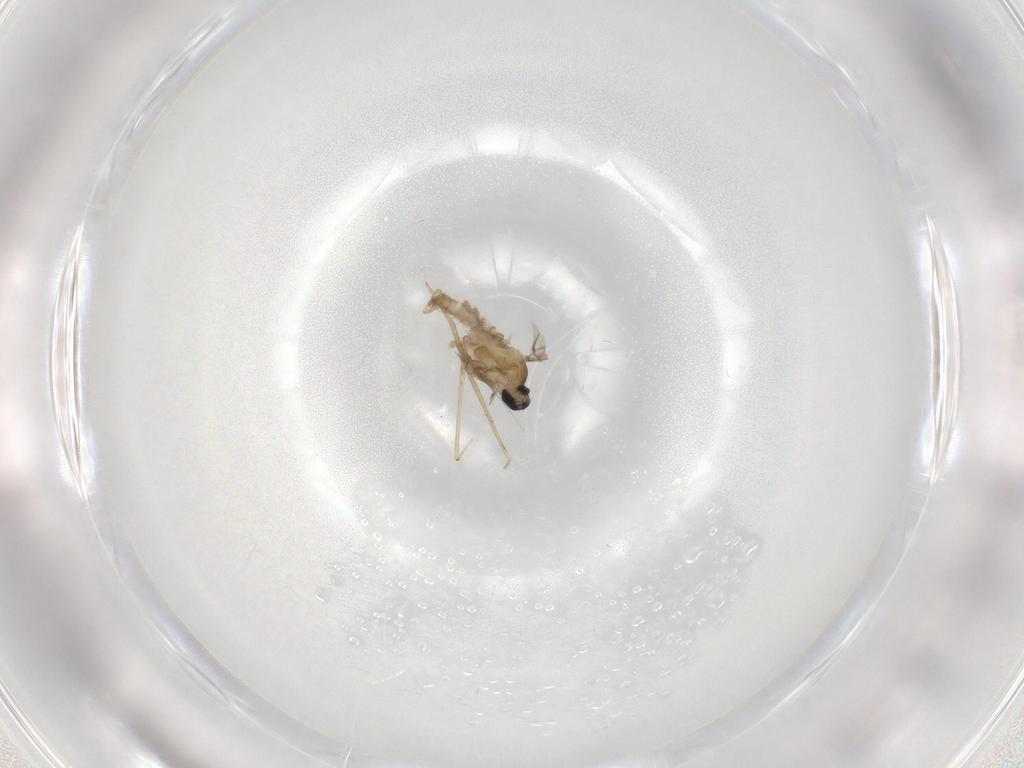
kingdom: Animalia
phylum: Arthropoda
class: Insecta
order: Diptera
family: Cecidomyiidae
